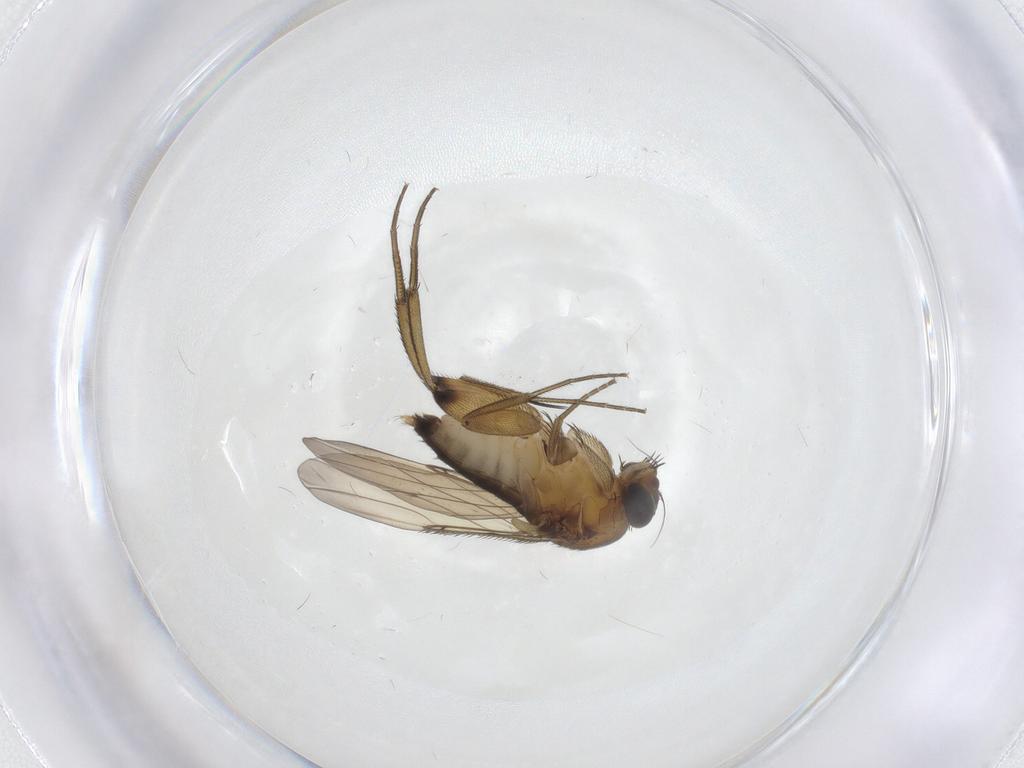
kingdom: Animalia
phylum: Arthropoda
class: Insecta
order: Diptera
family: Phoridae
